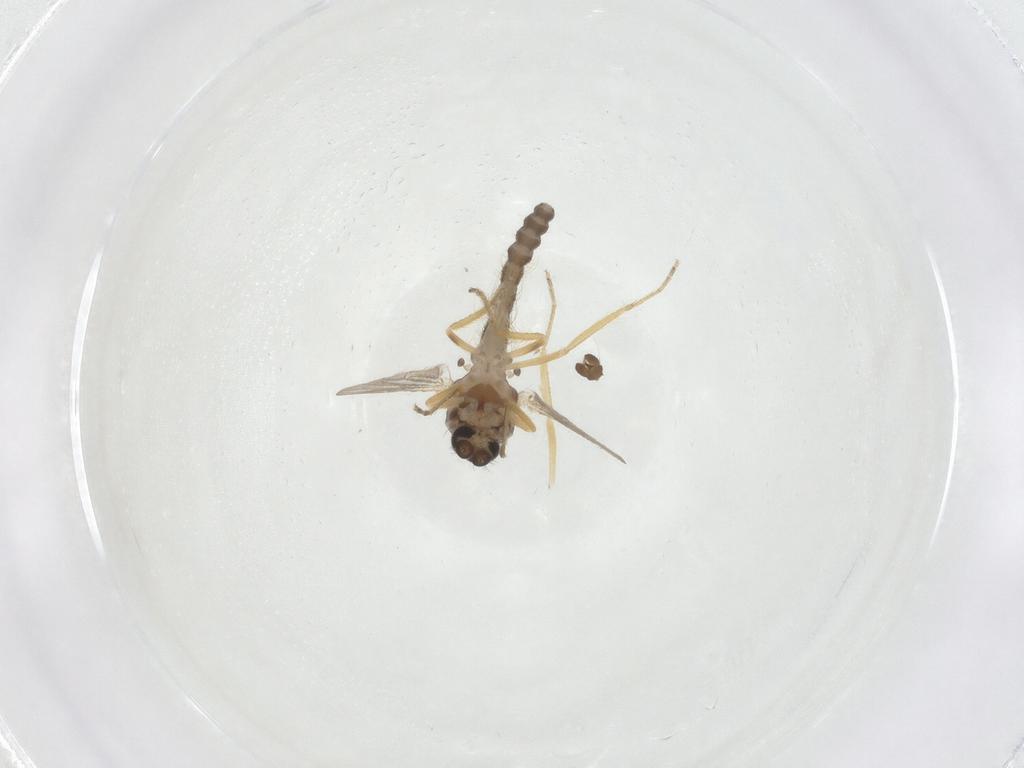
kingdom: Animalia
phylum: Arthropoda
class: Insecta
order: Diptera
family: Ceratopogonidae
